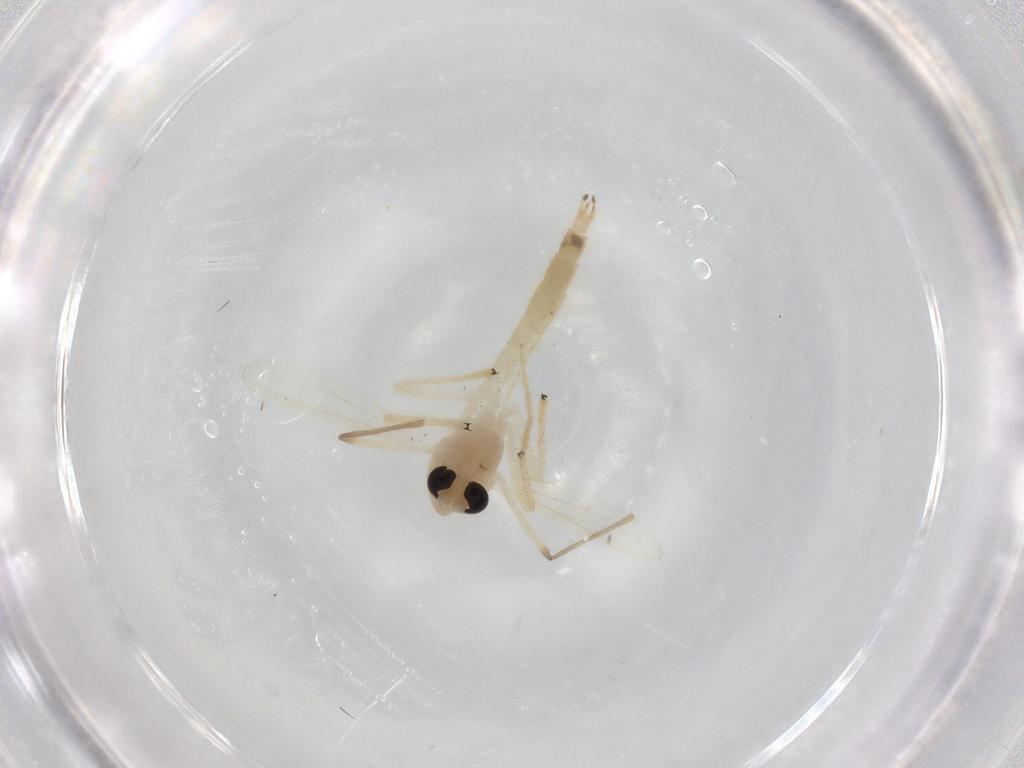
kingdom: Animalia
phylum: Arthropoda
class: Insecta
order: Diptera
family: Chironomidae
